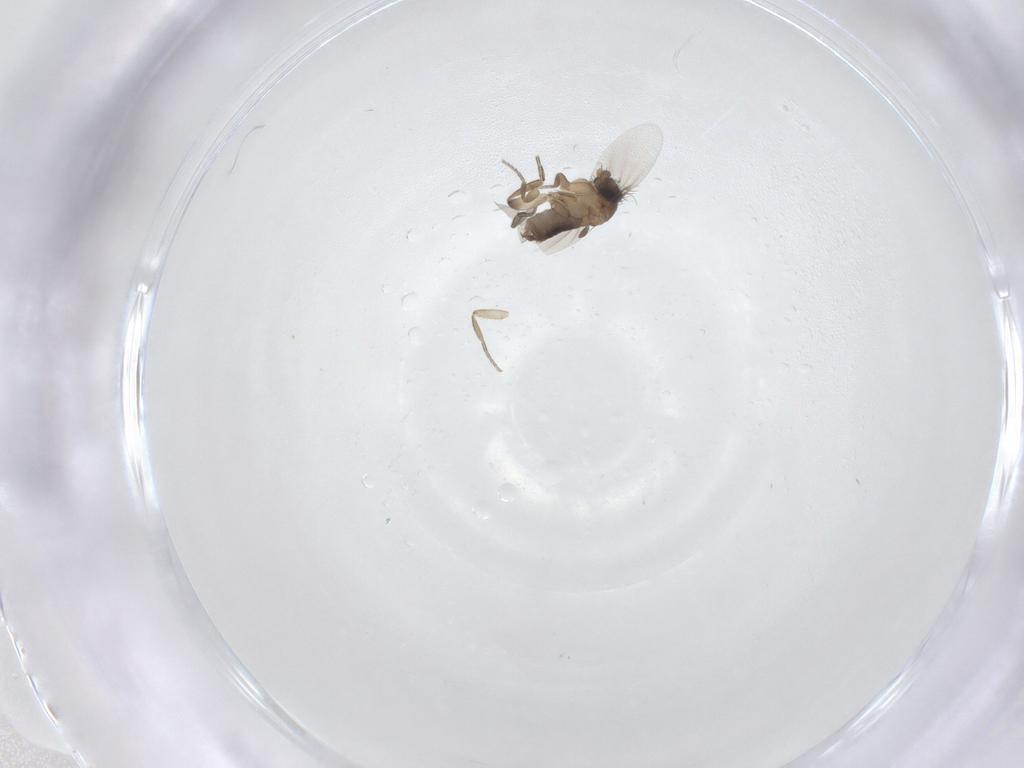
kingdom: Animalia
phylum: Arthropoda
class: Insecta
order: Diptera
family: Phoridae
